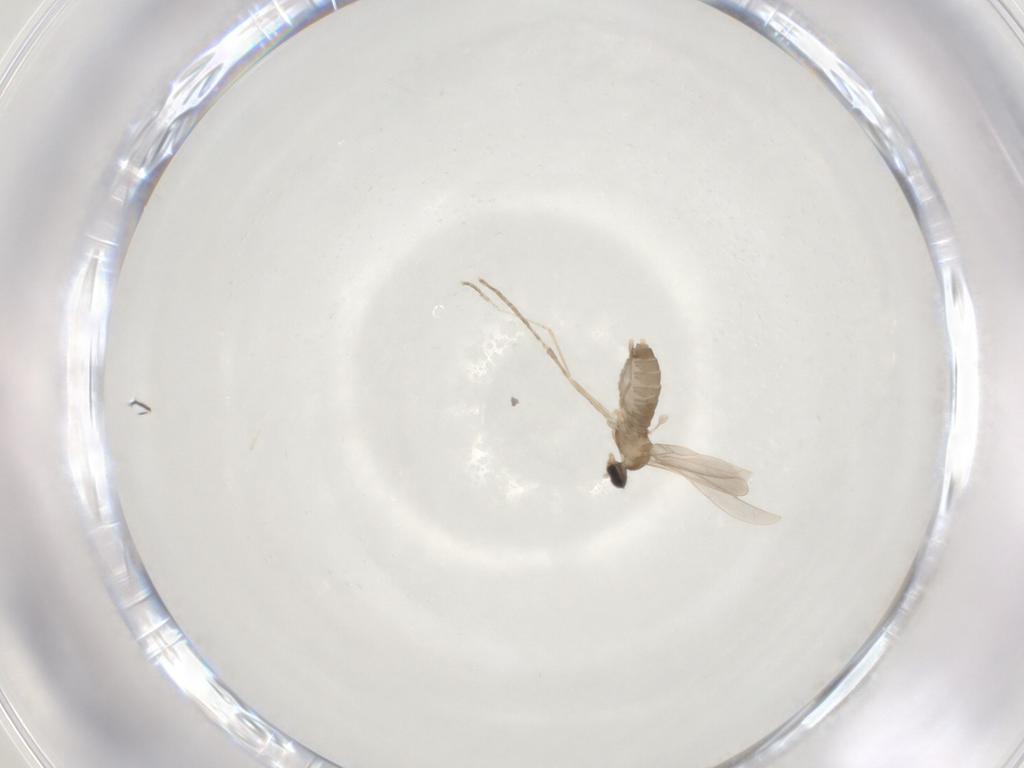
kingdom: Animalia
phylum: Arthropoda
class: Insecta
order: Diptera
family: Cecidomyiidae
